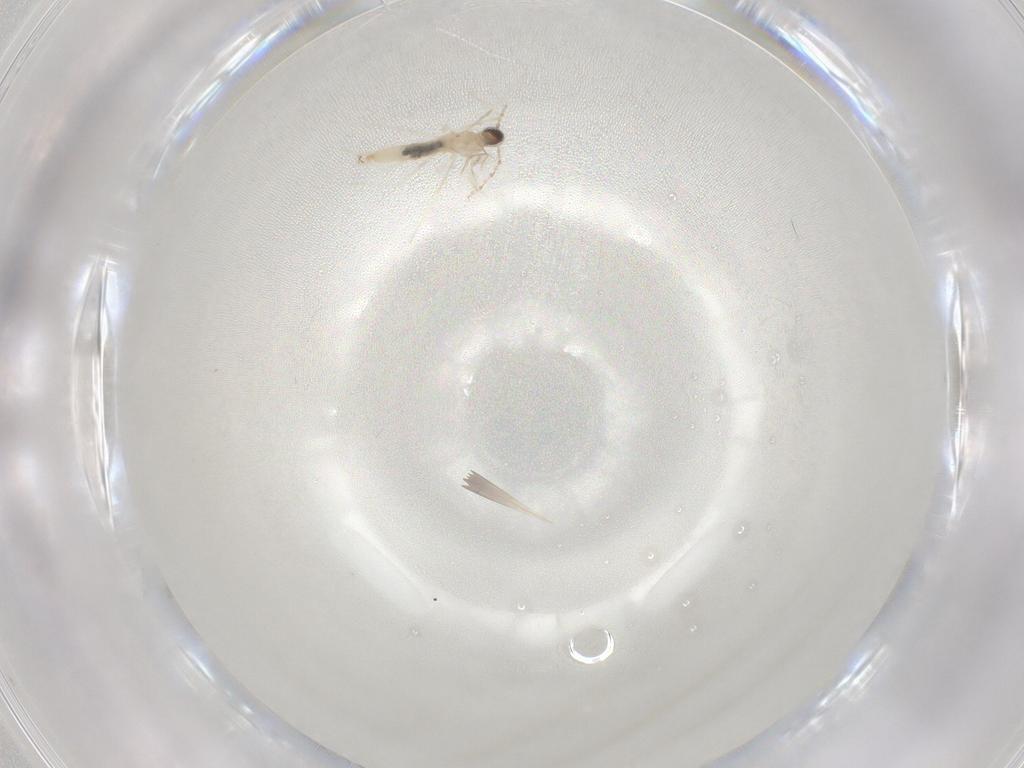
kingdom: Animalia
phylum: Arthropoda
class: Insecta
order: Diptera
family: Cecidomyiidae
